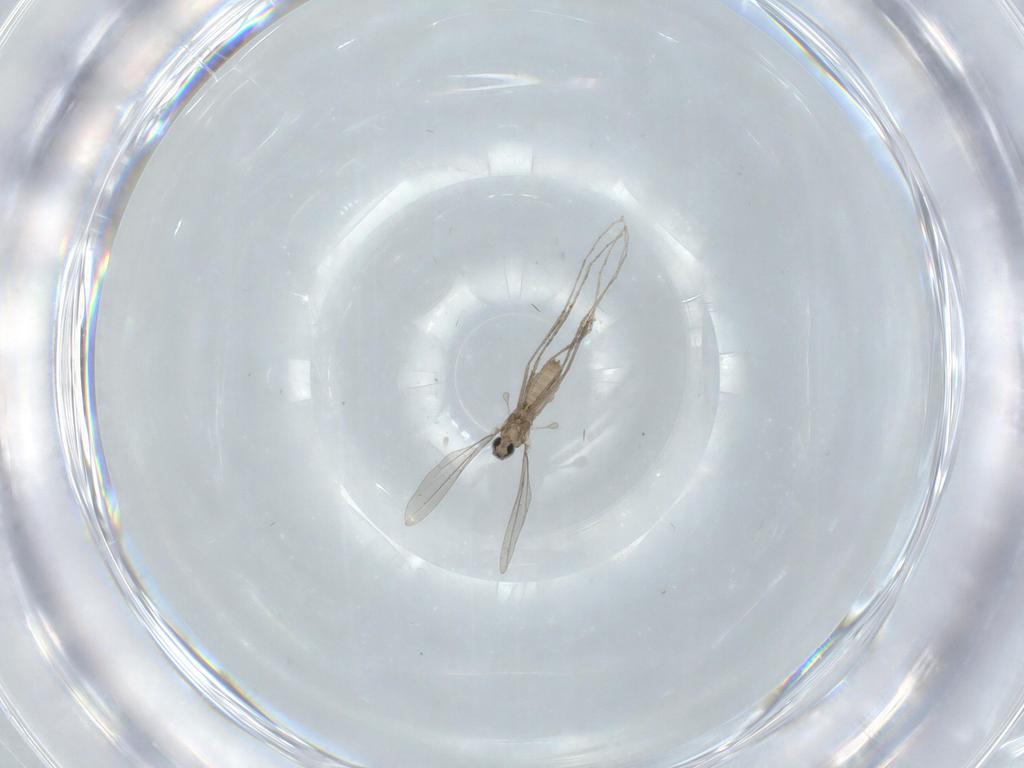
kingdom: Animalia
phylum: Arthropoda
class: Insecta
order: Diptera
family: Cecidomyiidae
